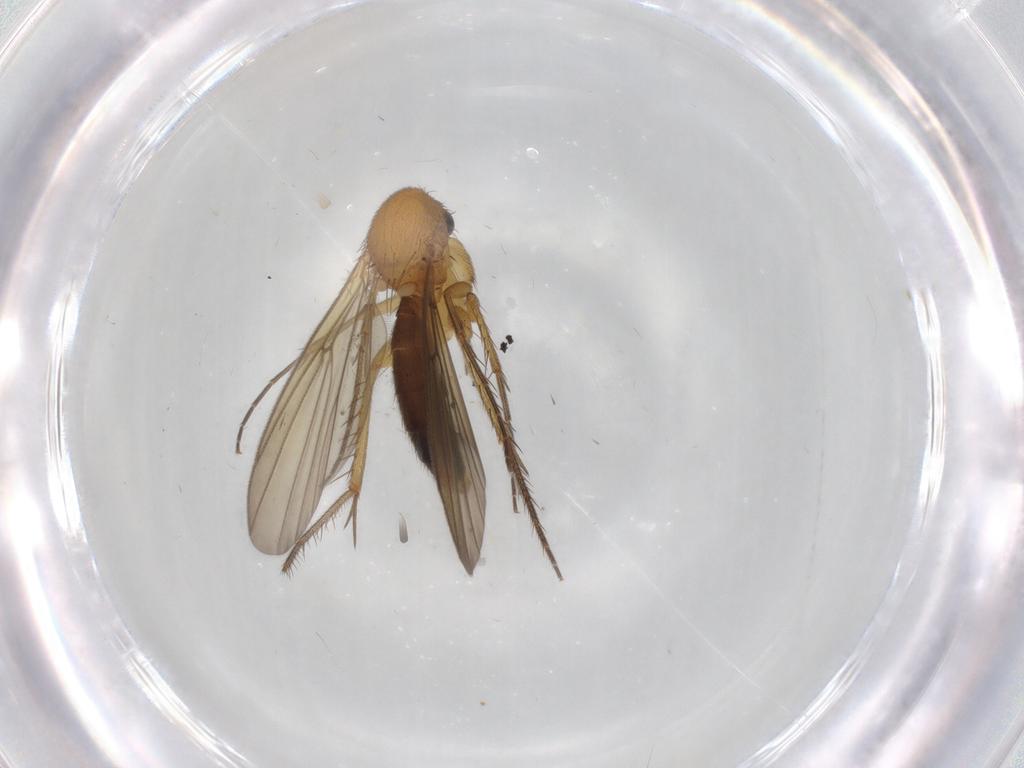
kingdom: Animalia
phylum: Arthropoda
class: Insecta
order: Diptera
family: Mycetophilidae
